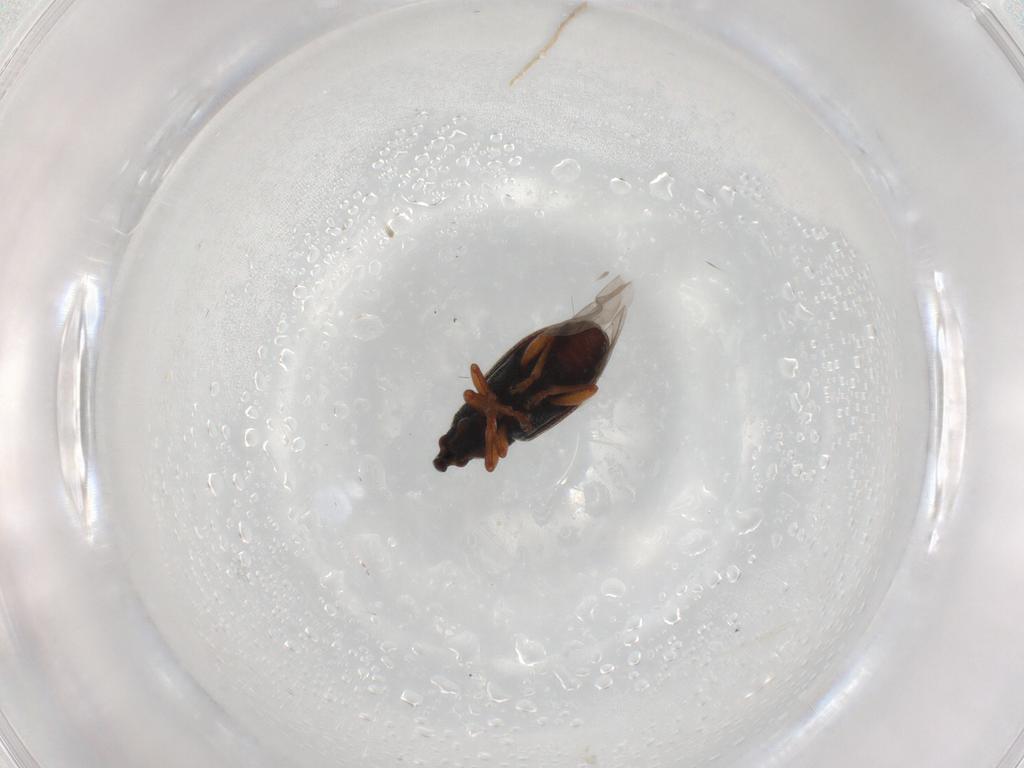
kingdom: Animalia
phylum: Arthropoda
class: Insecta
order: Coleoptera
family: Curculionidae
